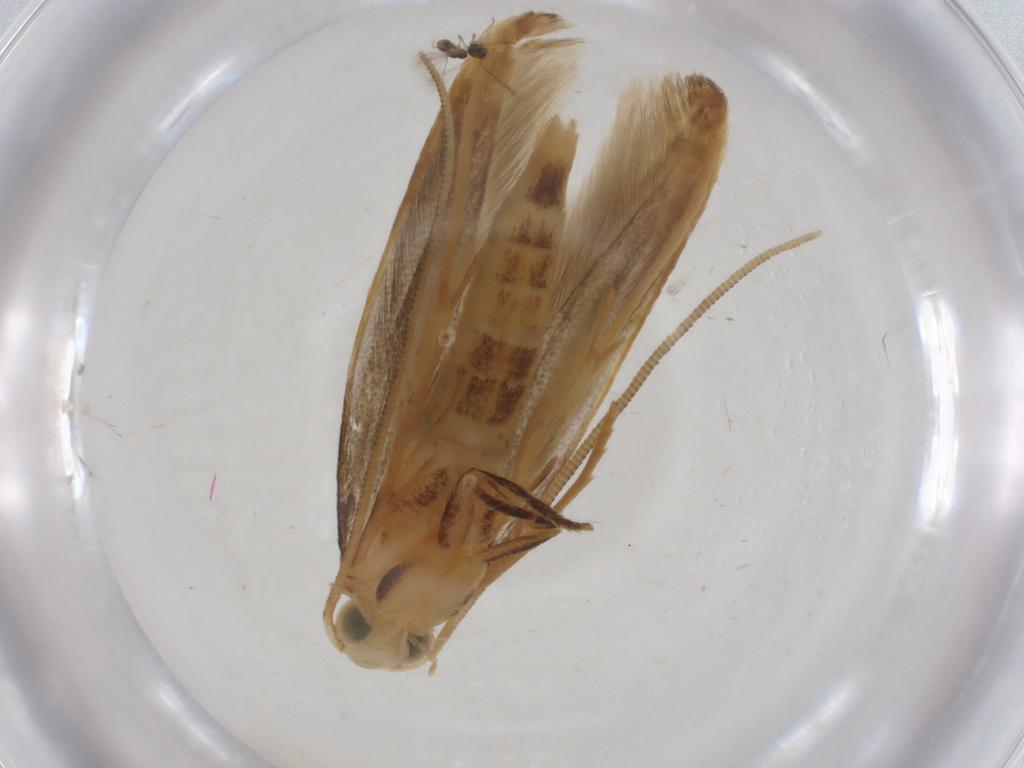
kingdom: Animalia
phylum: Arthropoda
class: Insecta
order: Lepidoptera
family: Tineidae
